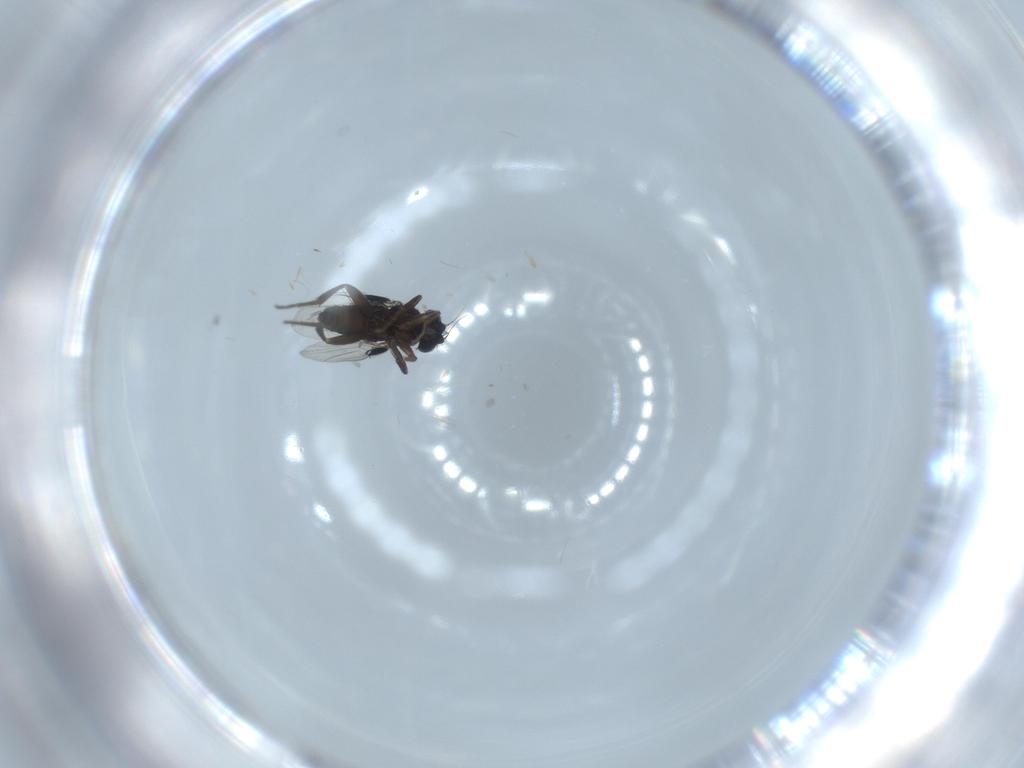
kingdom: Animalia
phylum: Arthropoda
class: Insecta
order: Diptera
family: Phoridae
